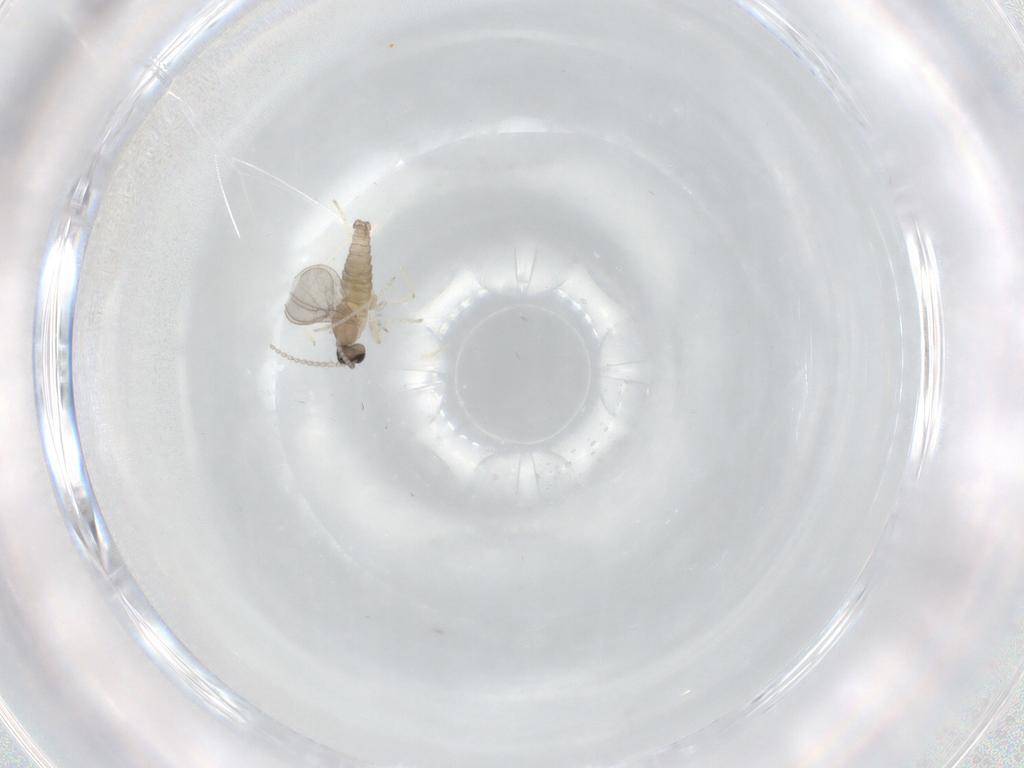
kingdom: Animalia
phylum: Arthropoda
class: Insecta
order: Diptera
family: Cecidomyiidae
